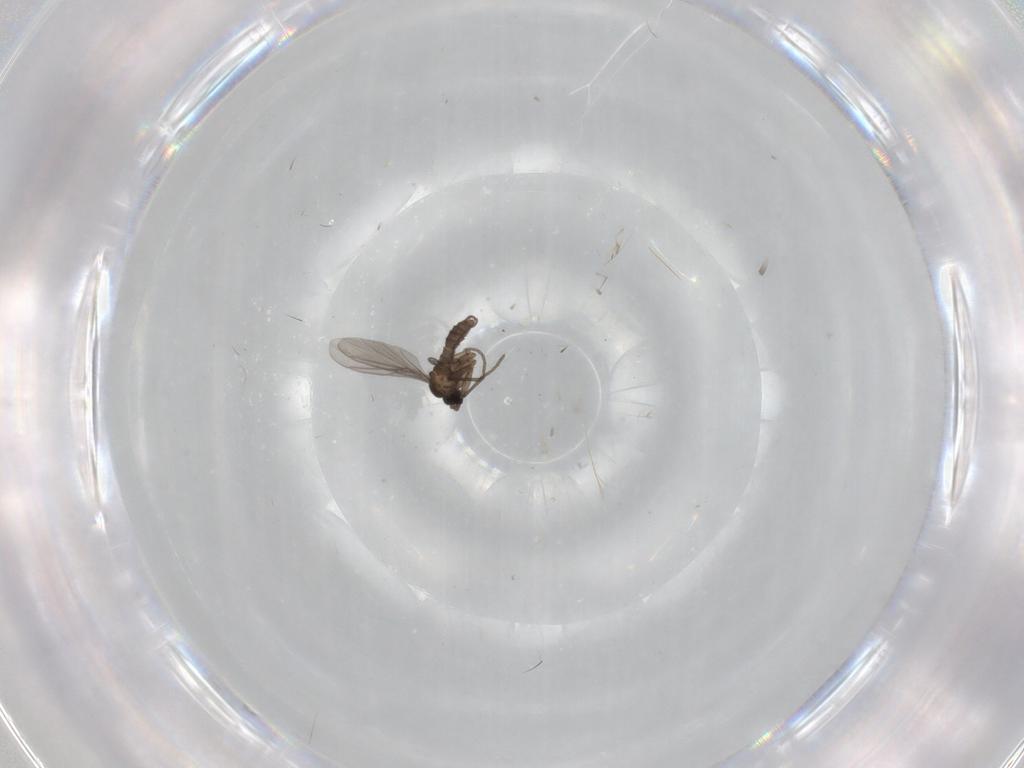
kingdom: Animalia
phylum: Arthropoda
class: Insecta
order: Diptera
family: Sciaridae
